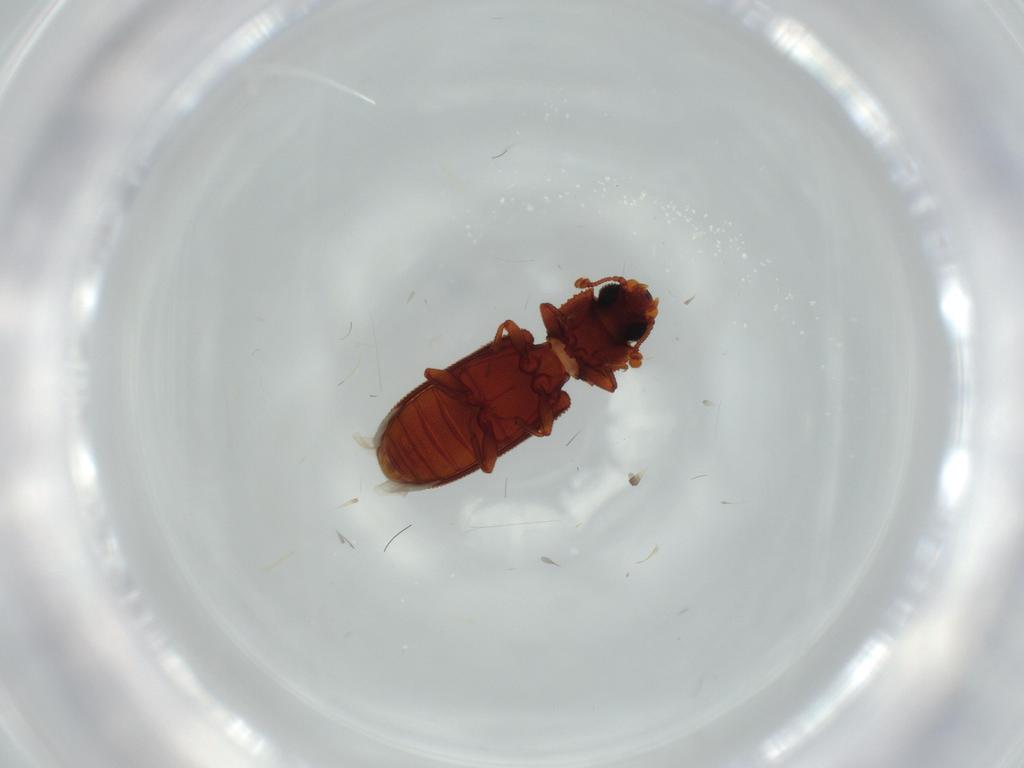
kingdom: Animalia
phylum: Arthropoda
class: Insecta
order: Coleoptera
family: Zopheridae
